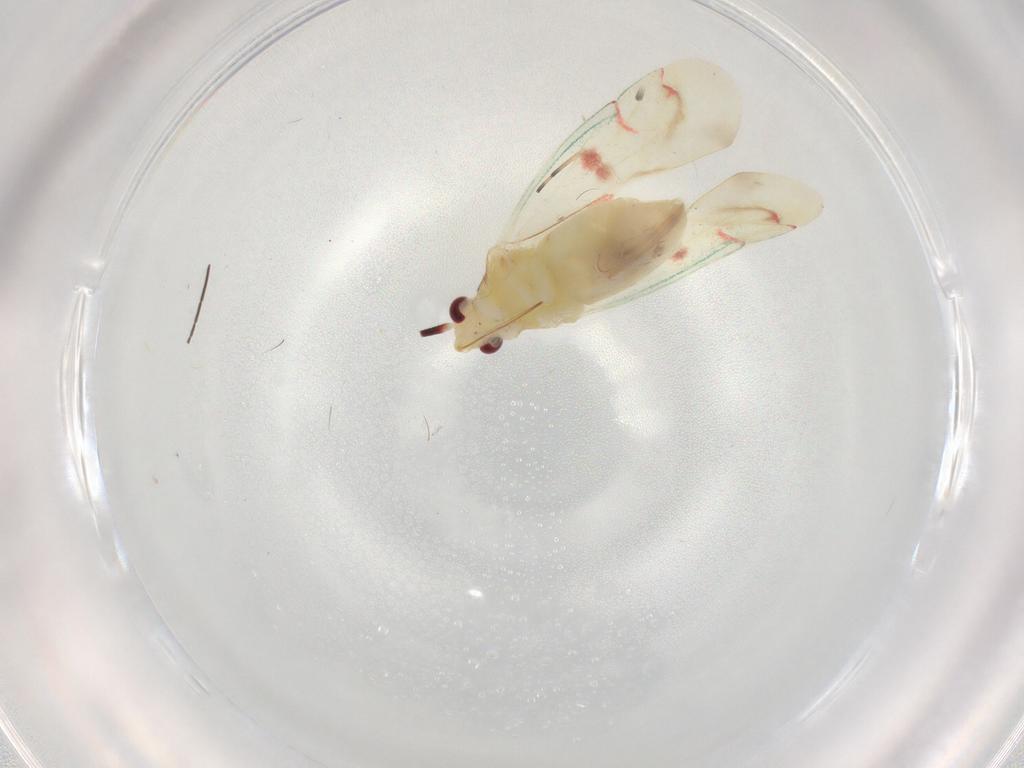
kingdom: Animalia
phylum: Arthropoda
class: Insecta
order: Hemiptera
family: Miridae
